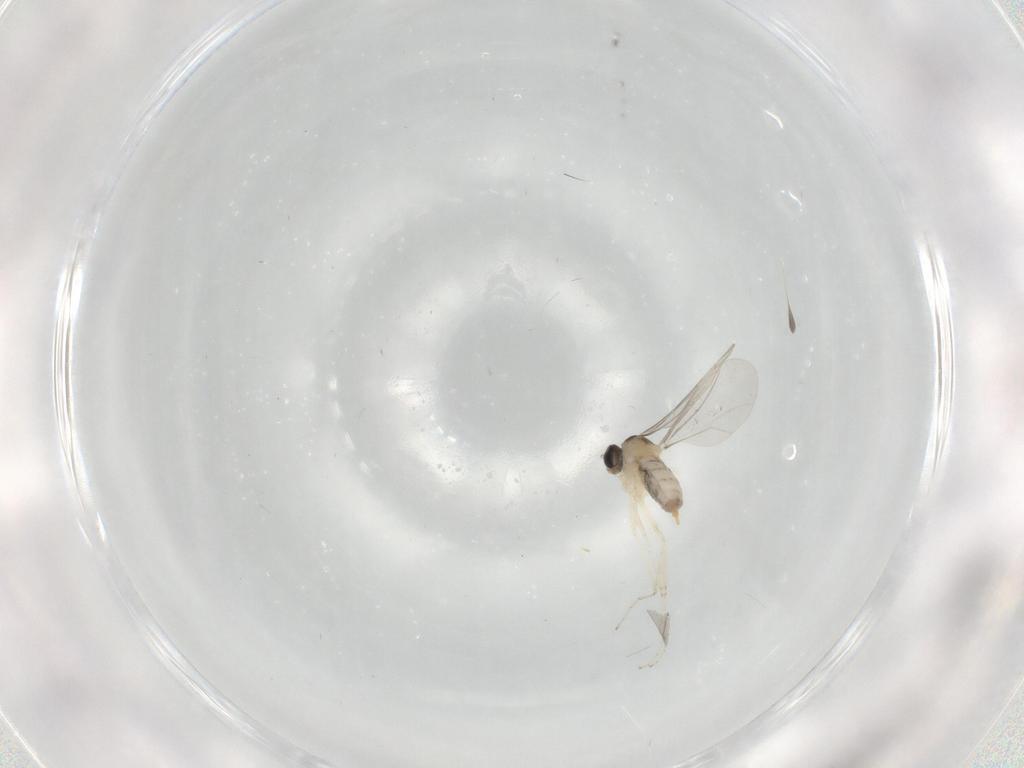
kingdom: Animalia
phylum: Arthropoda
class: Insecta
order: Diptera
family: Cecidomyiidae
